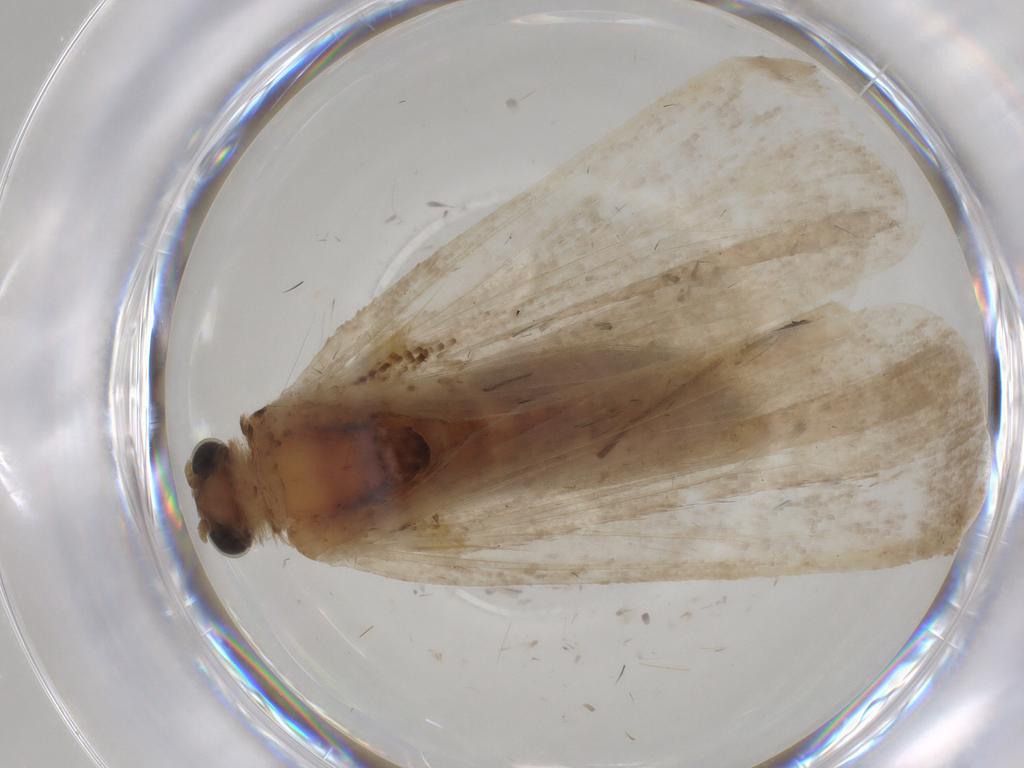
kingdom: Animalia
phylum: Arthropoda
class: Insecta
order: Lepidoptera
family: Crambidae
